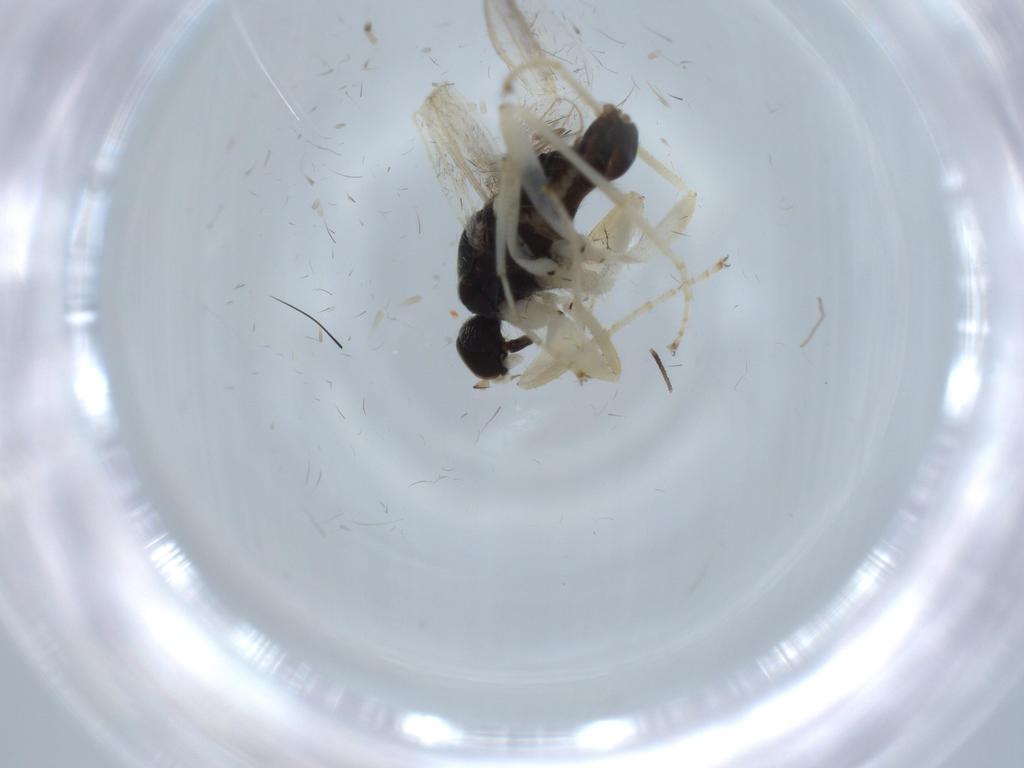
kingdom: Animalia
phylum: Arthropoda
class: Insecta
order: Diptera
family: Hybotidae
